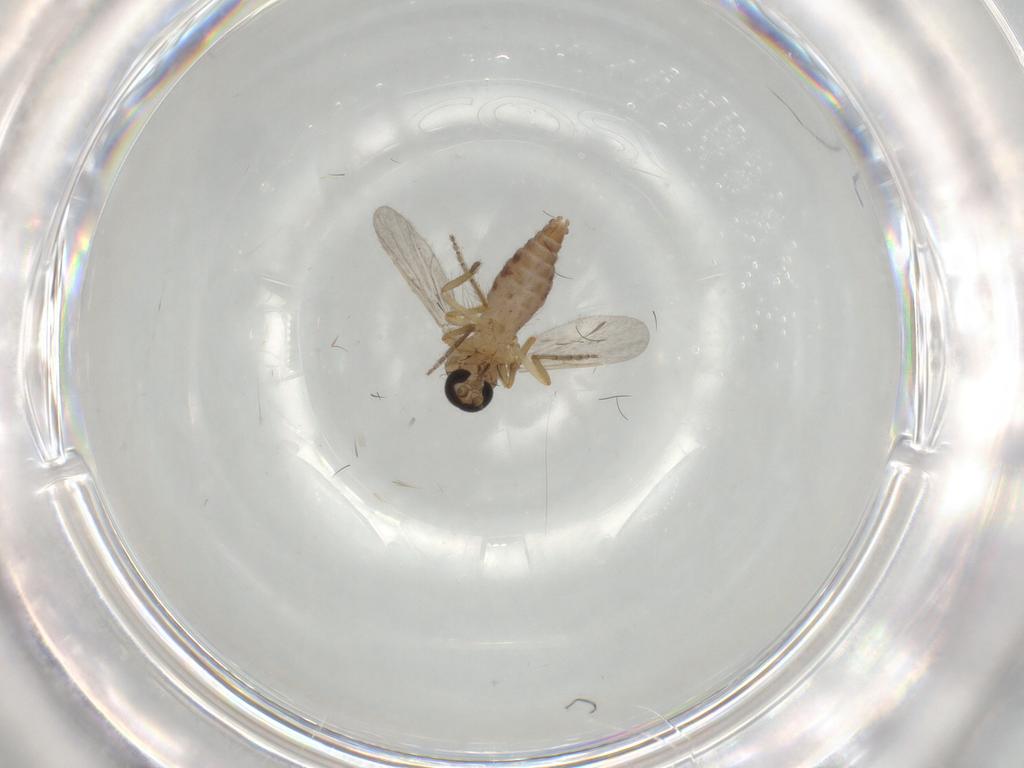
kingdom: Animalia
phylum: Arthropoda
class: Insecta
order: Diptera
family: Ceratopogonidae
